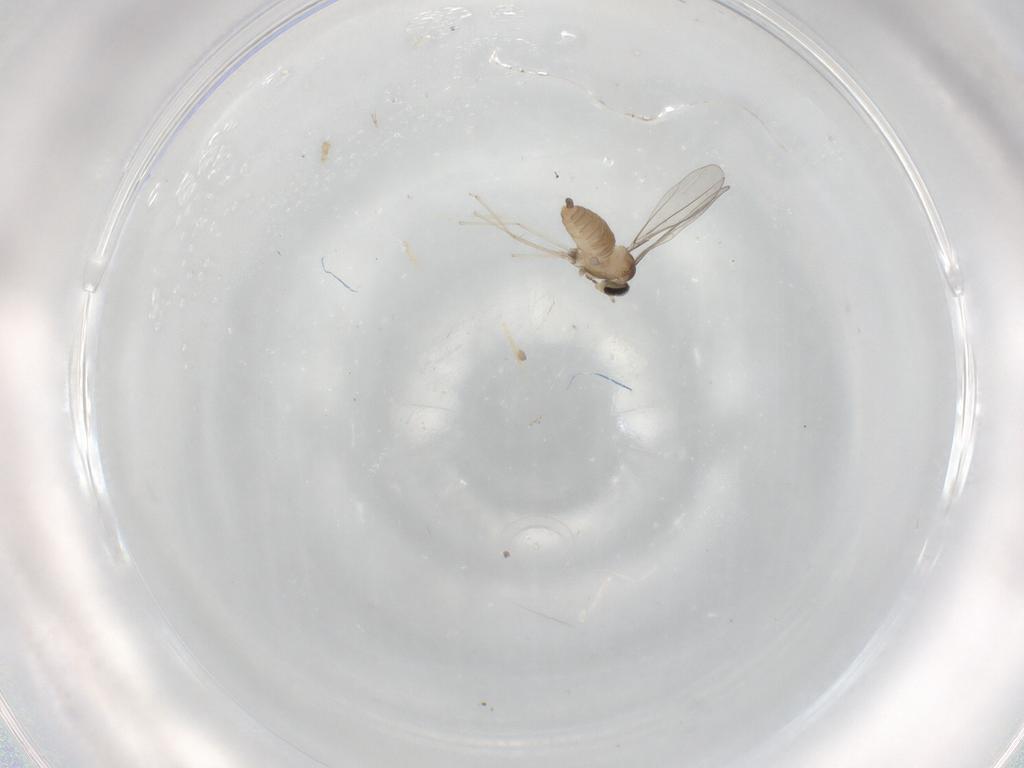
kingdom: Animalia
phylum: Arthropoda
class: Insecta
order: Diptera
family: Cecidomyiidae
